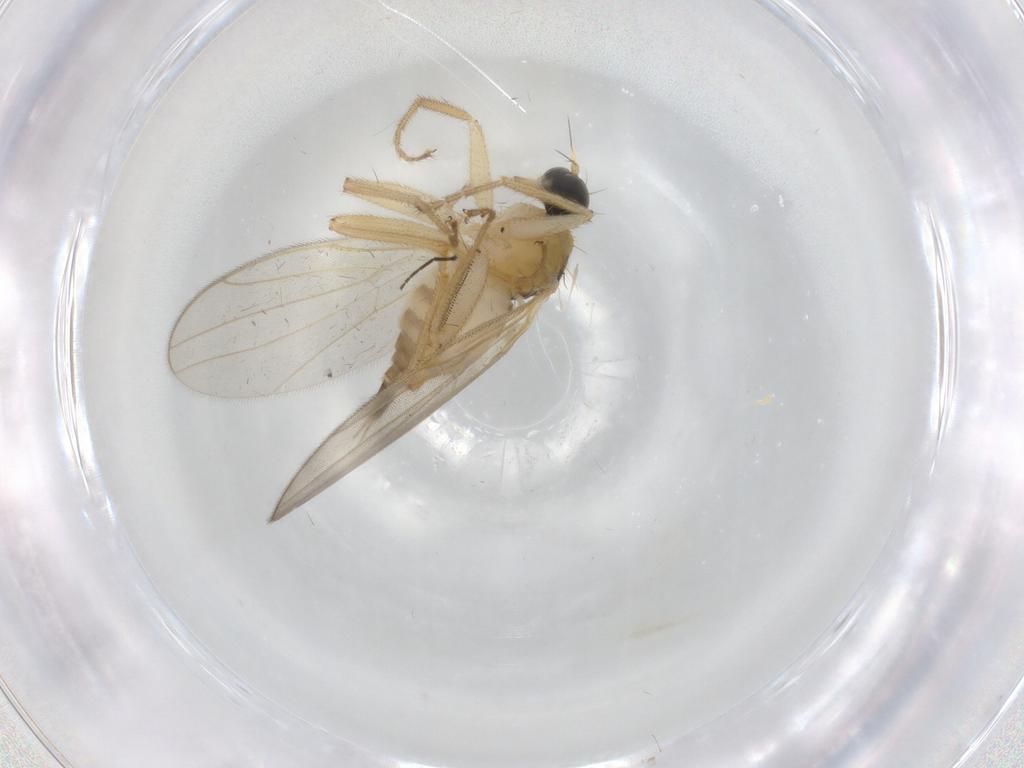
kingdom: Animalia
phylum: Arthropoda
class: Insecta
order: Diptera
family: Hybotidae
